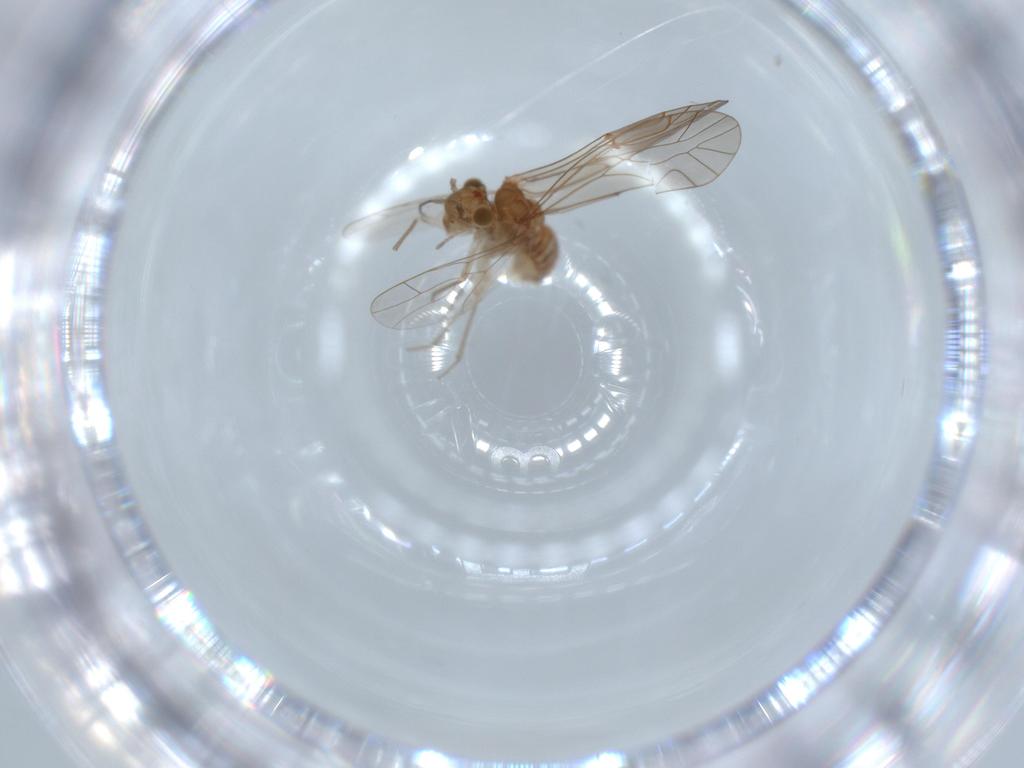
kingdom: Animalia
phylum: Arthropoda
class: Insecta
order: Psocodea
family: Lachesillidae
